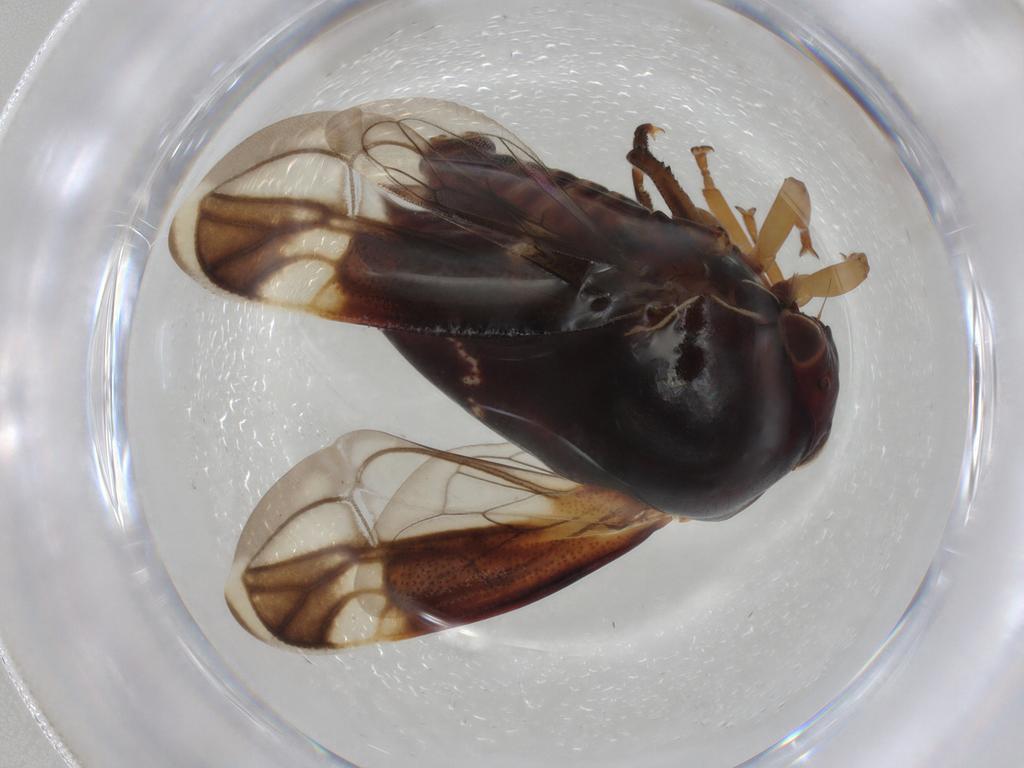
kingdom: Animalia
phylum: Arthropoda
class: Insecta
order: Hemiptera
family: Membracidae
